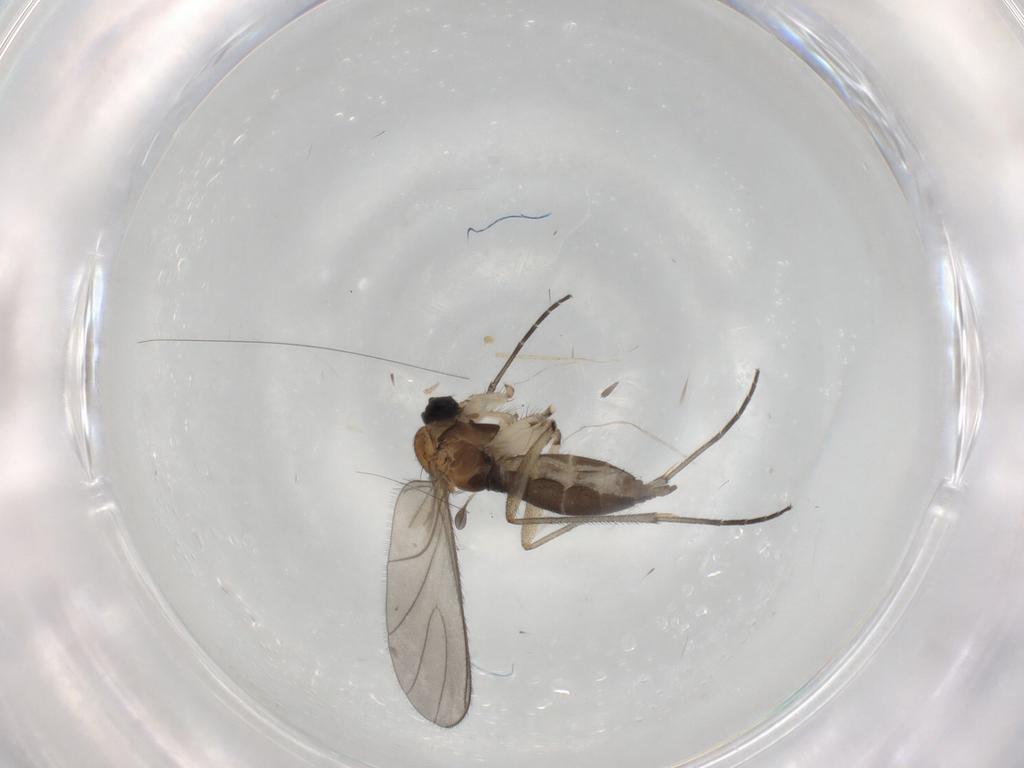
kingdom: Animalia
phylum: Arthropoda
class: Insecta
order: Diptera
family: Sciaridae
